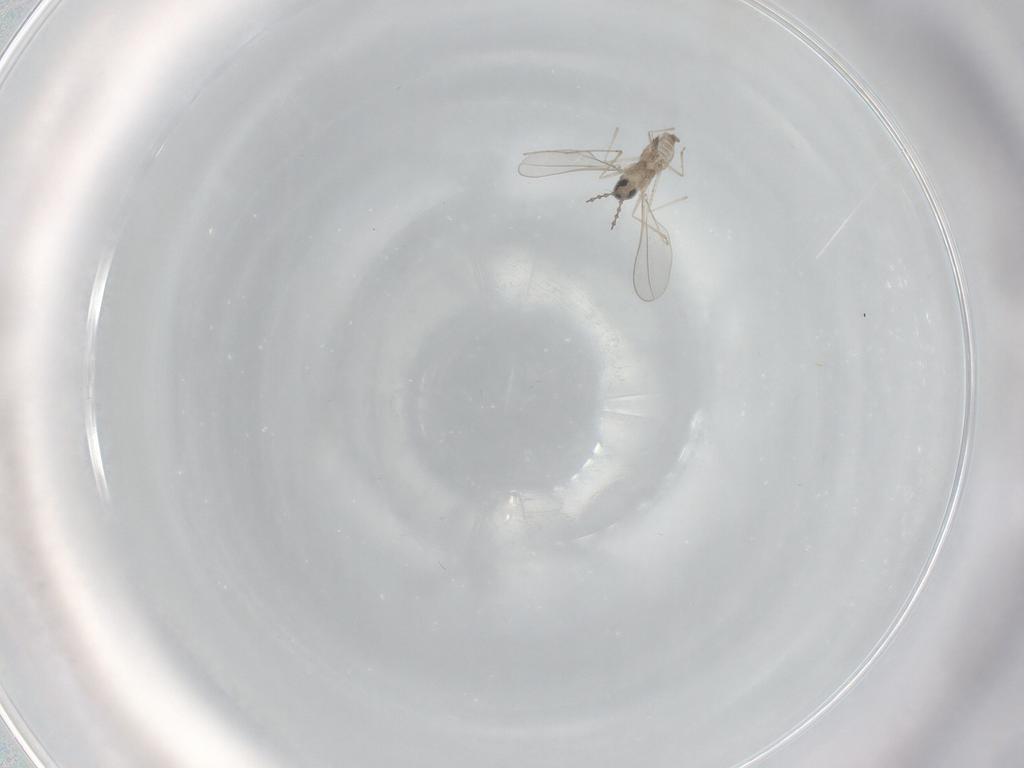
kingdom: Animalia
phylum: Arthropoda
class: Insecta
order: Diptera
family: Cecidomyiidae
